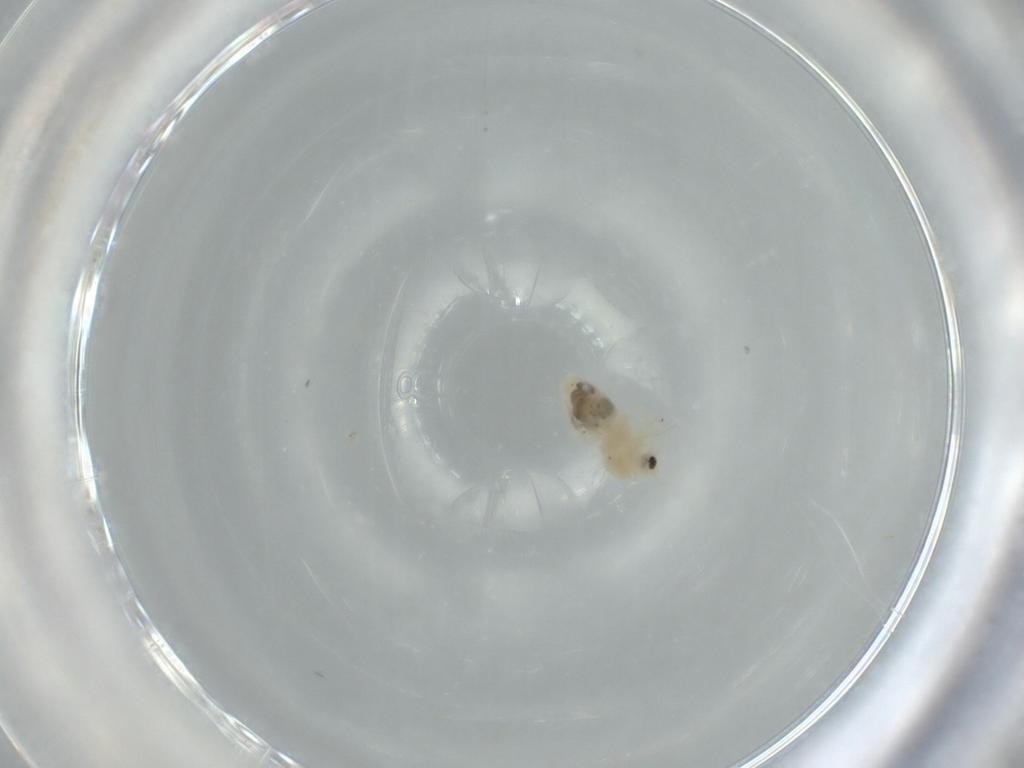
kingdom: Animalia
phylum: Arthropoda
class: Insecta
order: Hemiptera
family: Aleyrodidae
